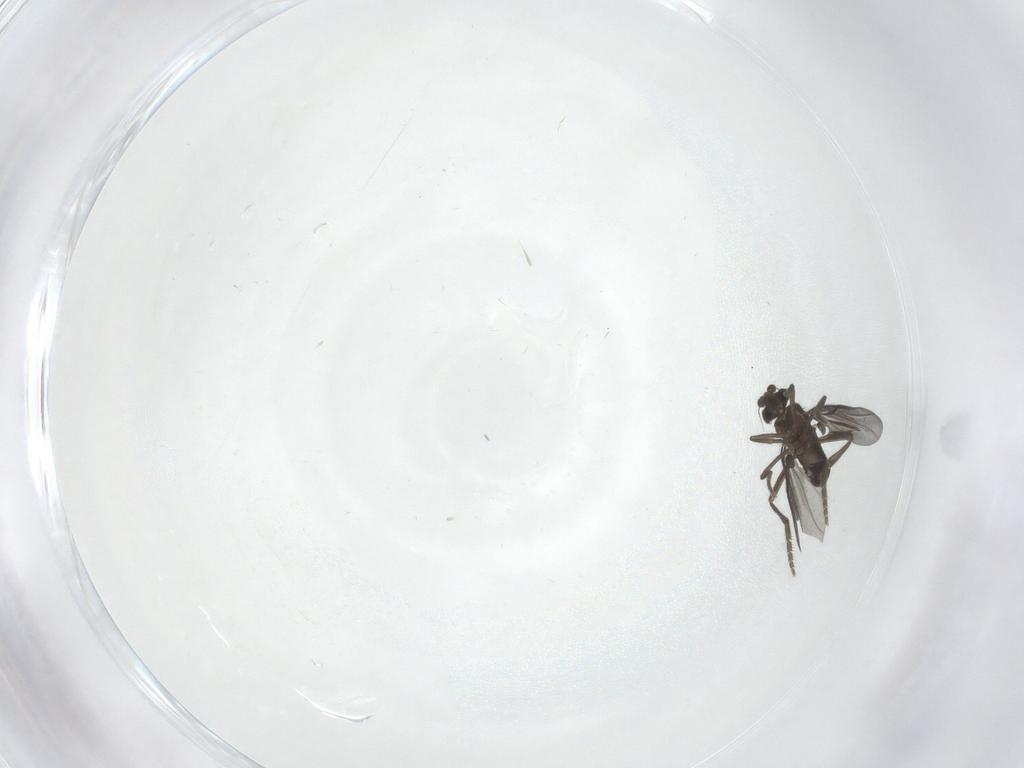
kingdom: Animalia
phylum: Arthropoda
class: Insecta
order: Diptera
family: Phoridae
